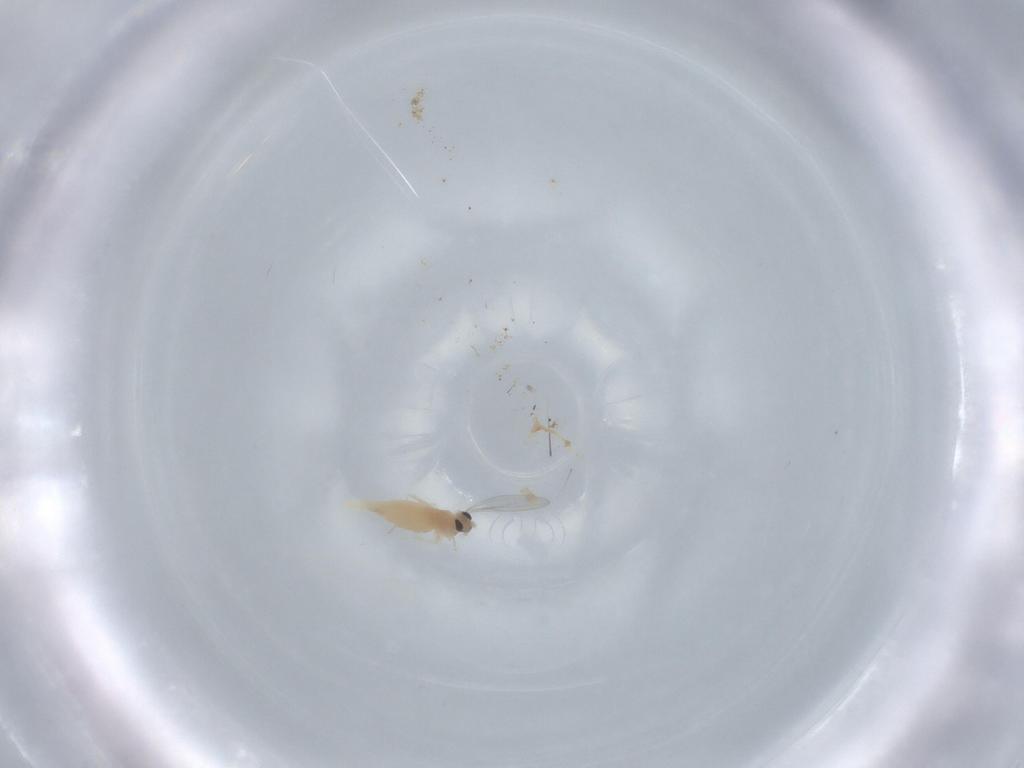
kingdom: Animalia
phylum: Arthropoda
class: Insecta
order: Diptera
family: Cecidomyiidae
